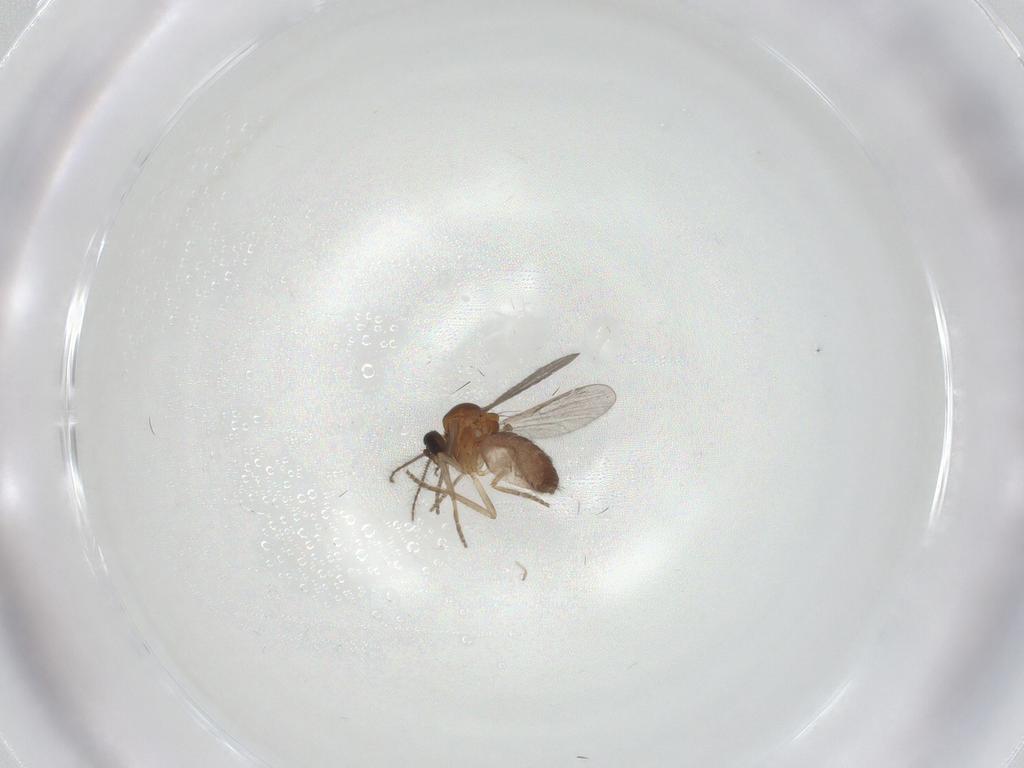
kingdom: Animalia
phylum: Arthropoda
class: Insecta
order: Diptera
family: Ceratopogonidae
